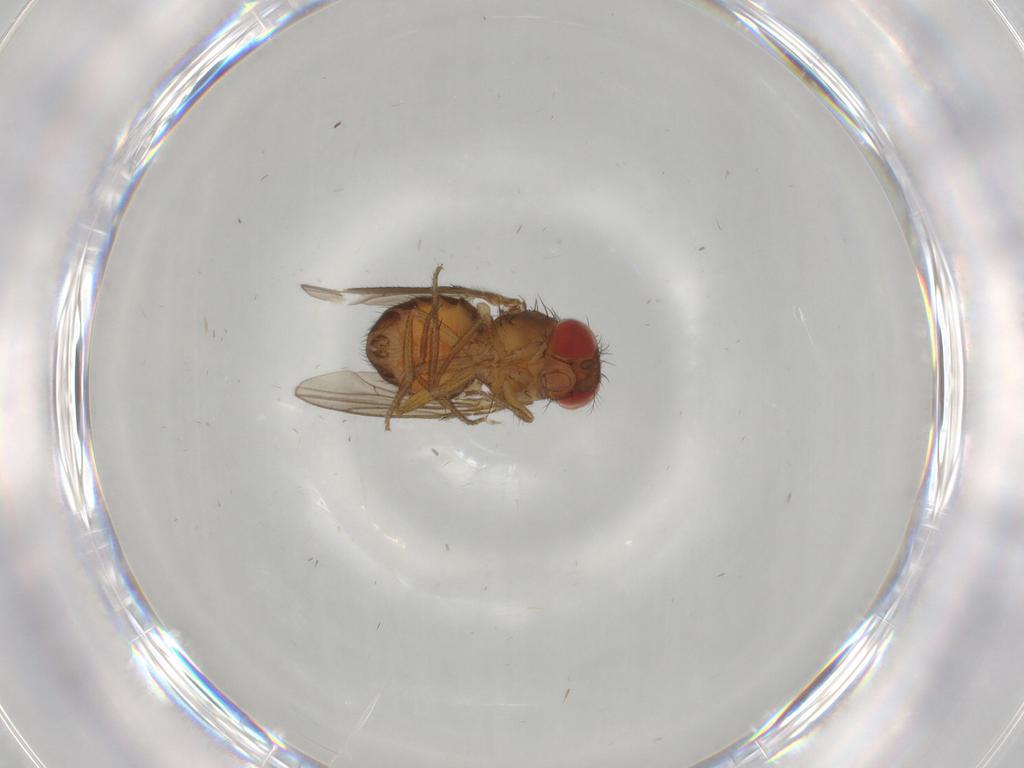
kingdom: Animalia
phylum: Arthropoda
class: Insecta
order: Diptera
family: Drosophilidae
